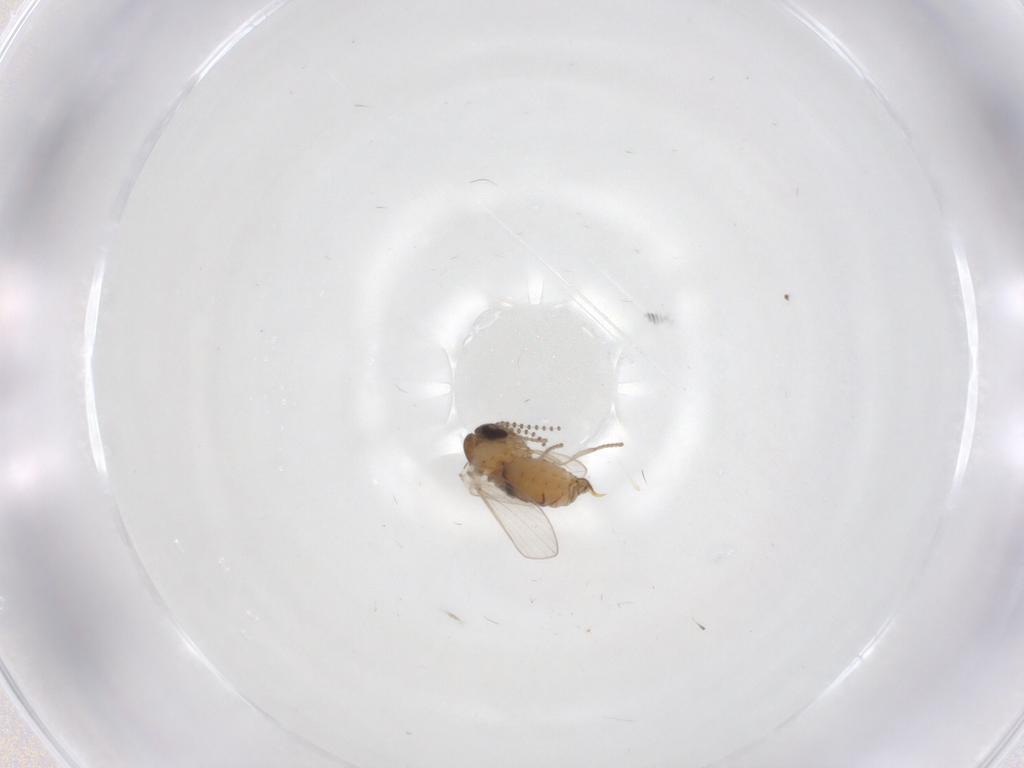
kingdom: Animalia
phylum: Arthropoda
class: Insecta
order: Diptera
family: Psychodidae
